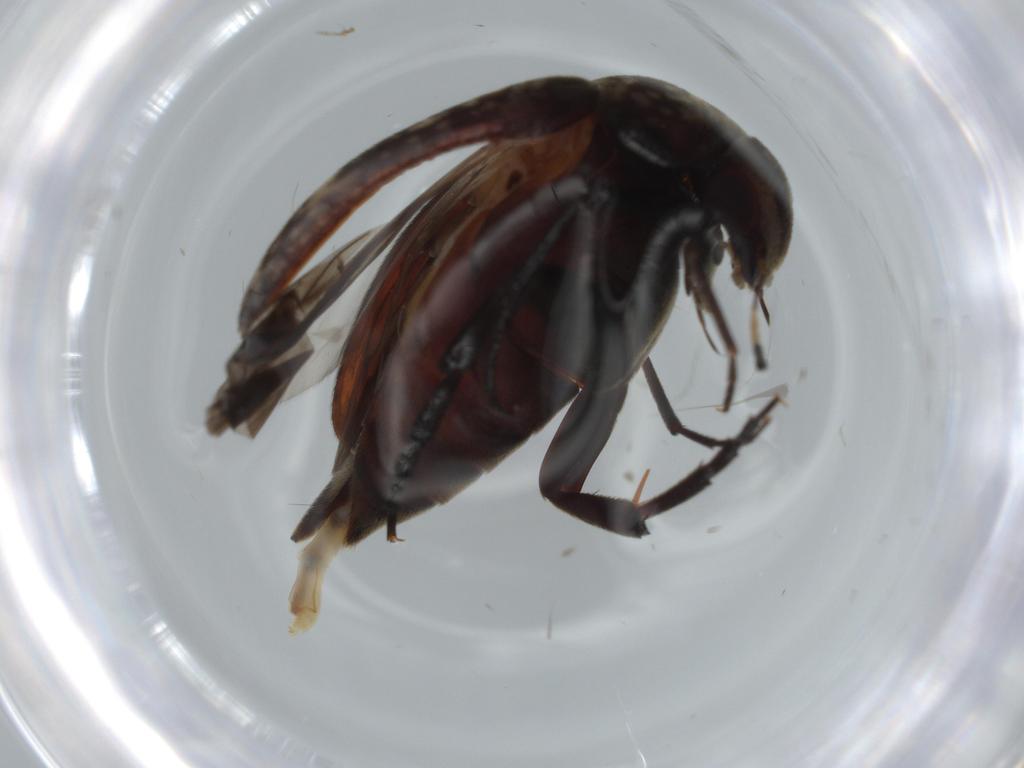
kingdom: Animalia
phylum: Arthropoda
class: Insecta
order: Coleoptera
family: Erotylidae
